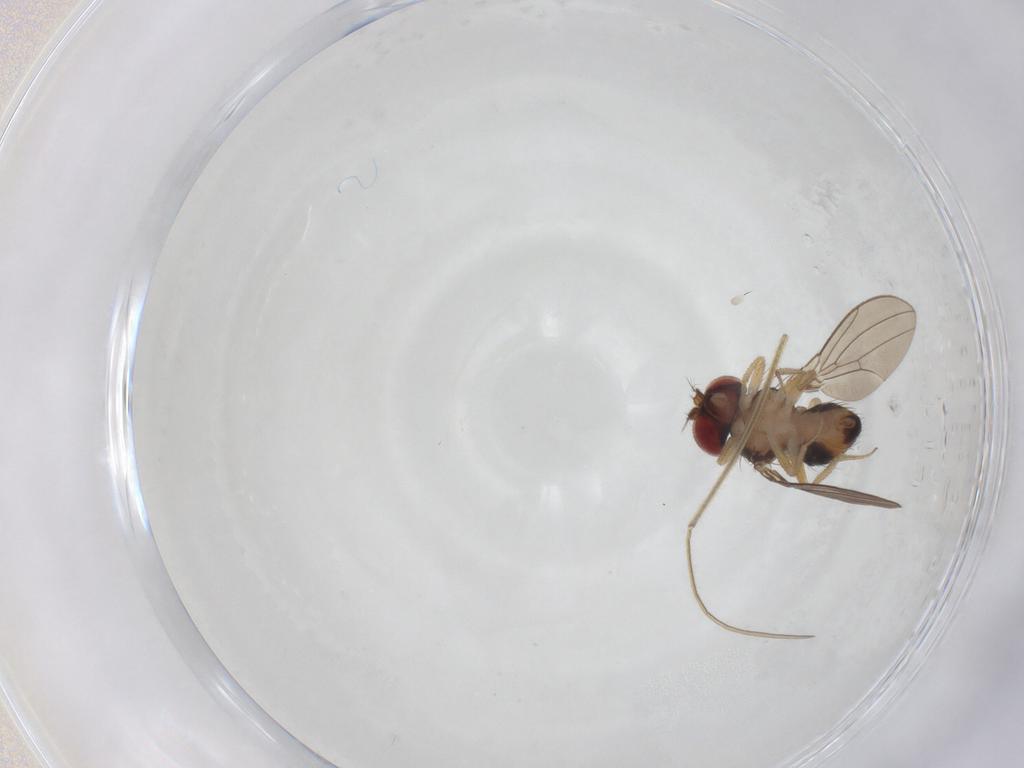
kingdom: Animalia
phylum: Arthropoda
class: Insecta
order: Diptera
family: Drosophilidae
